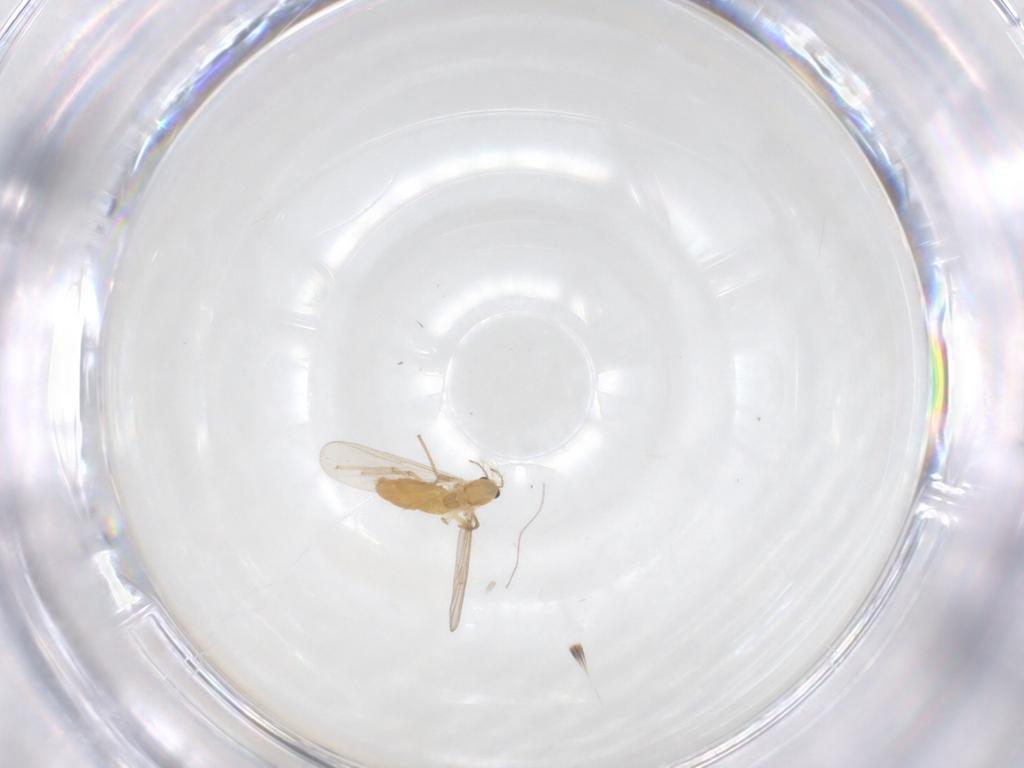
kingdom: Animalia
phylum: Arthropoda
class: Insecta
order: Diptera
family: Chironomidae
